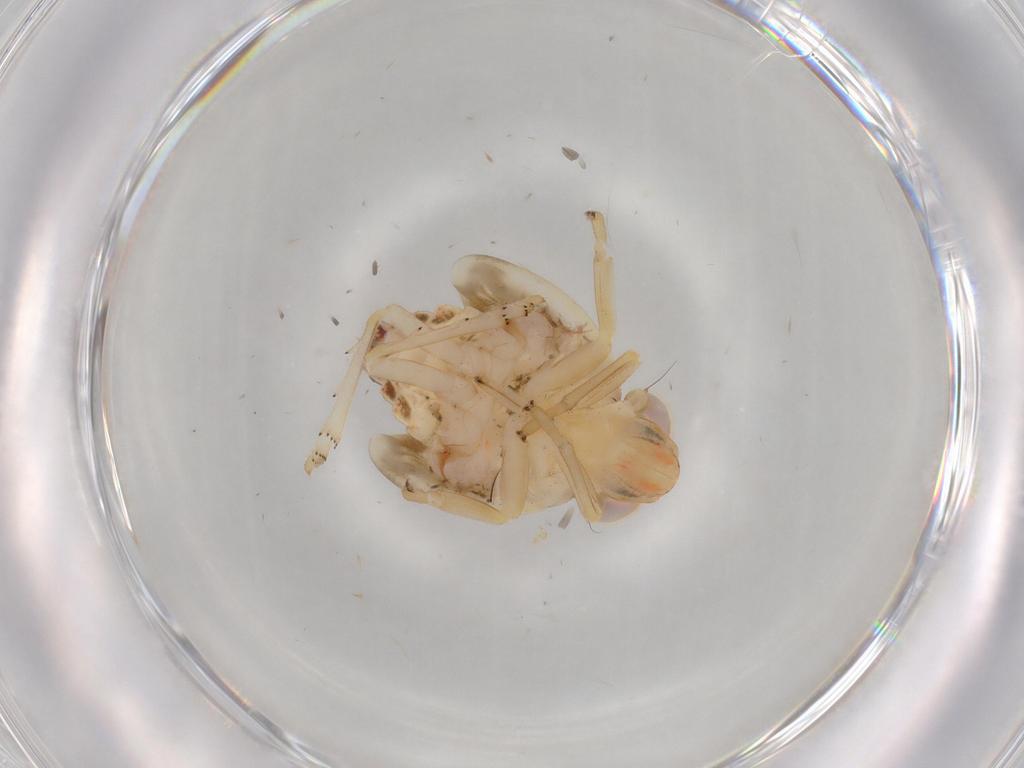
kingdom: Animalia
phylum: Arthropoda
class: Insecta
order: Hemiptera
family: Cicadellidae
